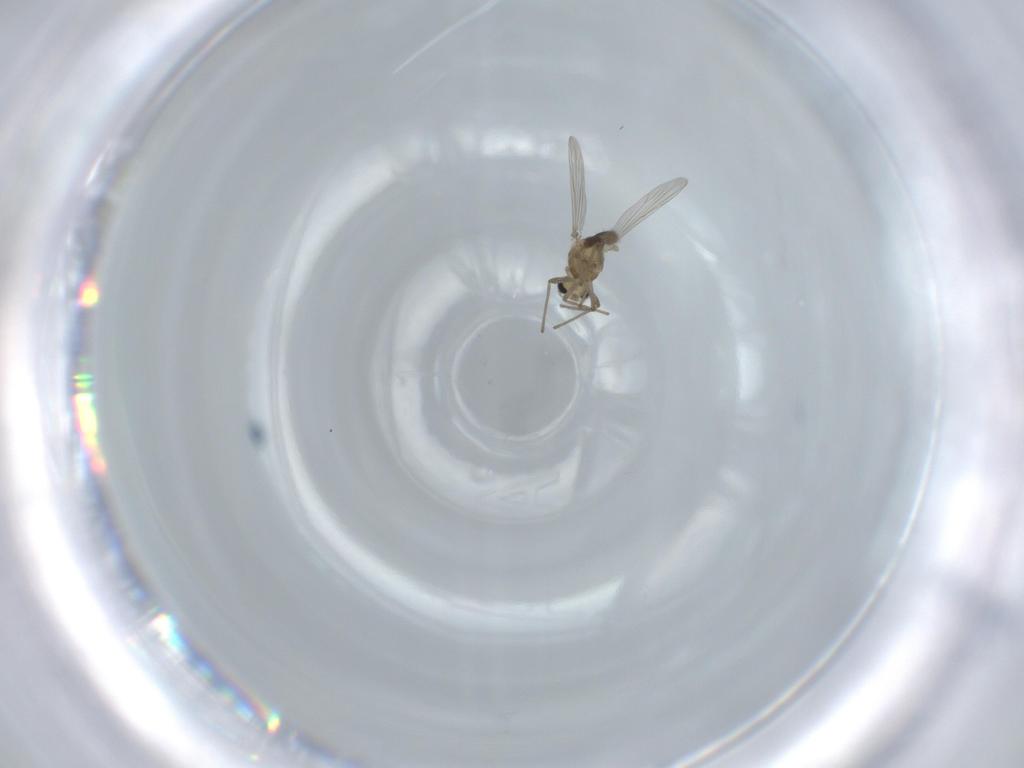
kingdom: Animalia
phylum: Arthropoda
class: Insecta
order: Diptera
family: Chironomidae
